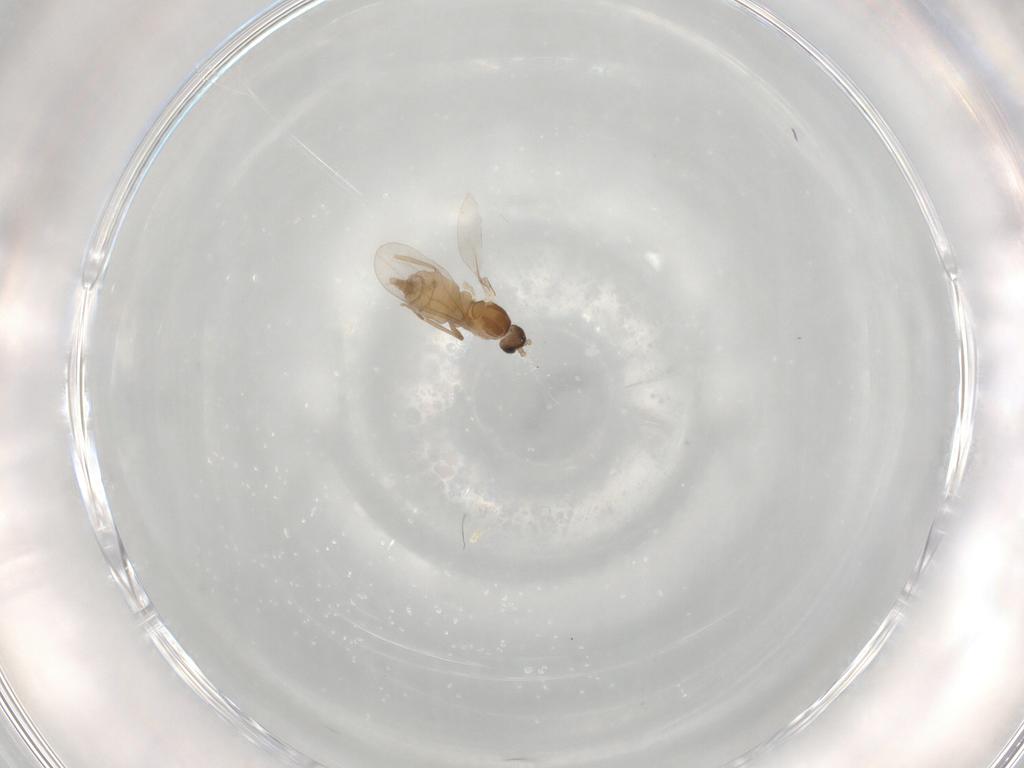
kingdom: Animalia
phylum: Arthropoda
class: Insecta
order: Diptera
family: Cecidomyiidae
